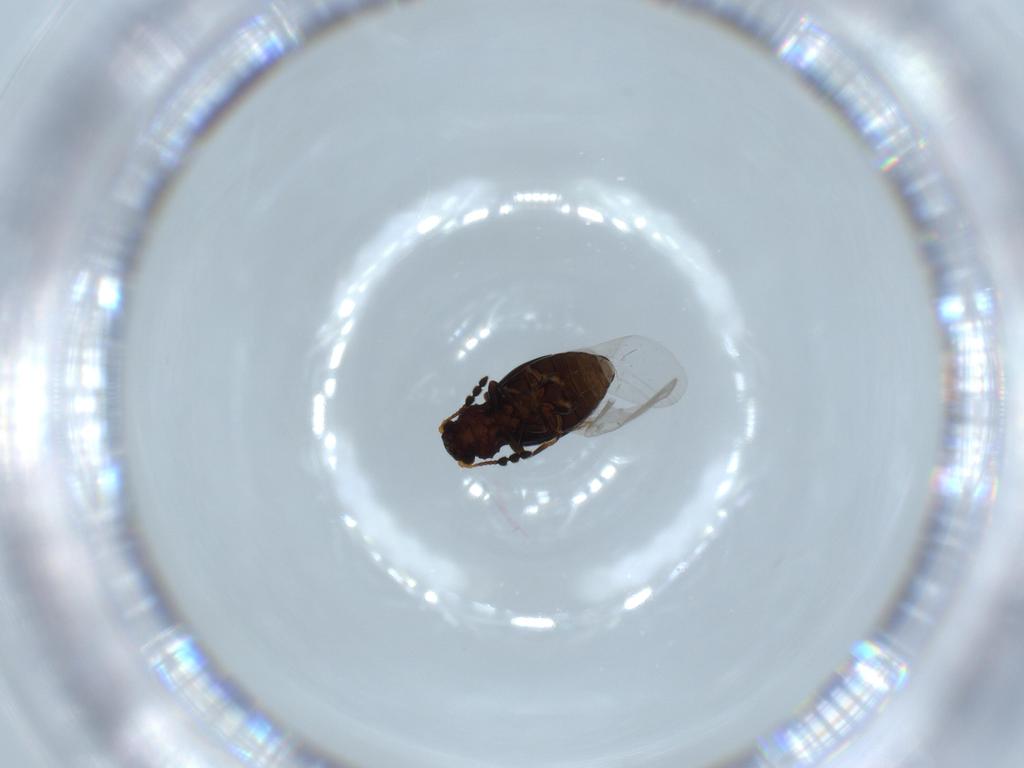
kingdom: Animalia
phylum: Arthropoda
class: Insecta
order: Coleoptera
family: Salpingidae
